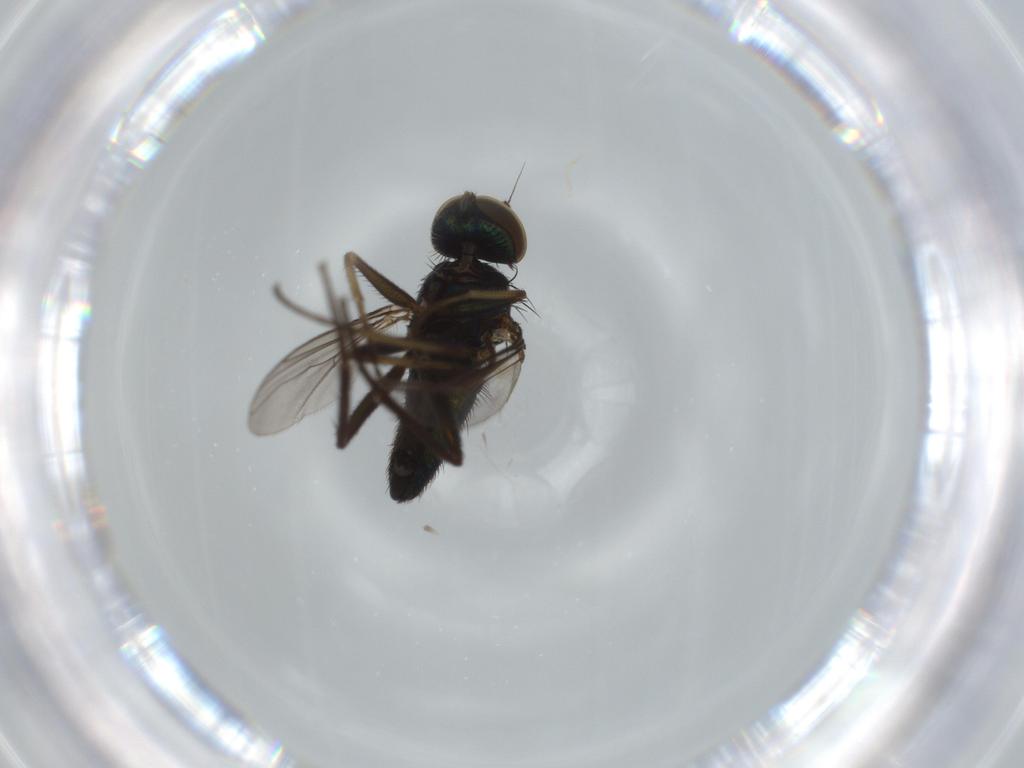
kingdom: Animalia
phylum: Arthropoda
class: Insecta
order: Diptera
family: Dolichopodidae
